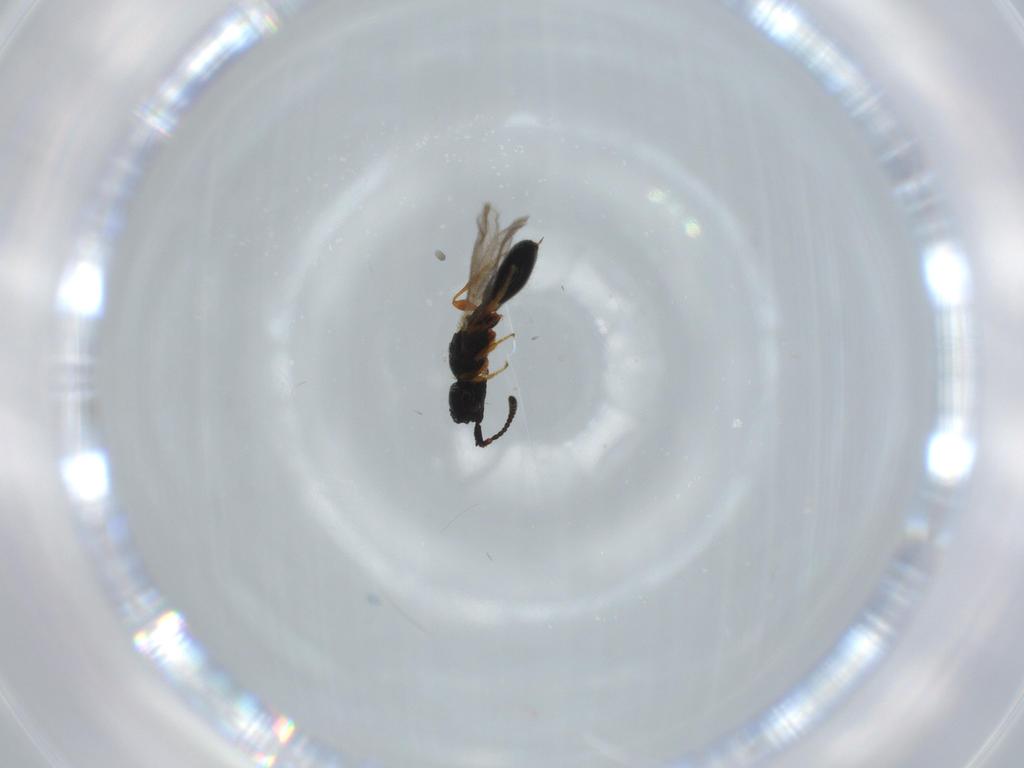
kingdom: Animalia
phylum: Arthropoda
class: Insecta
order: Hymenoptera
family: Diapriidae
